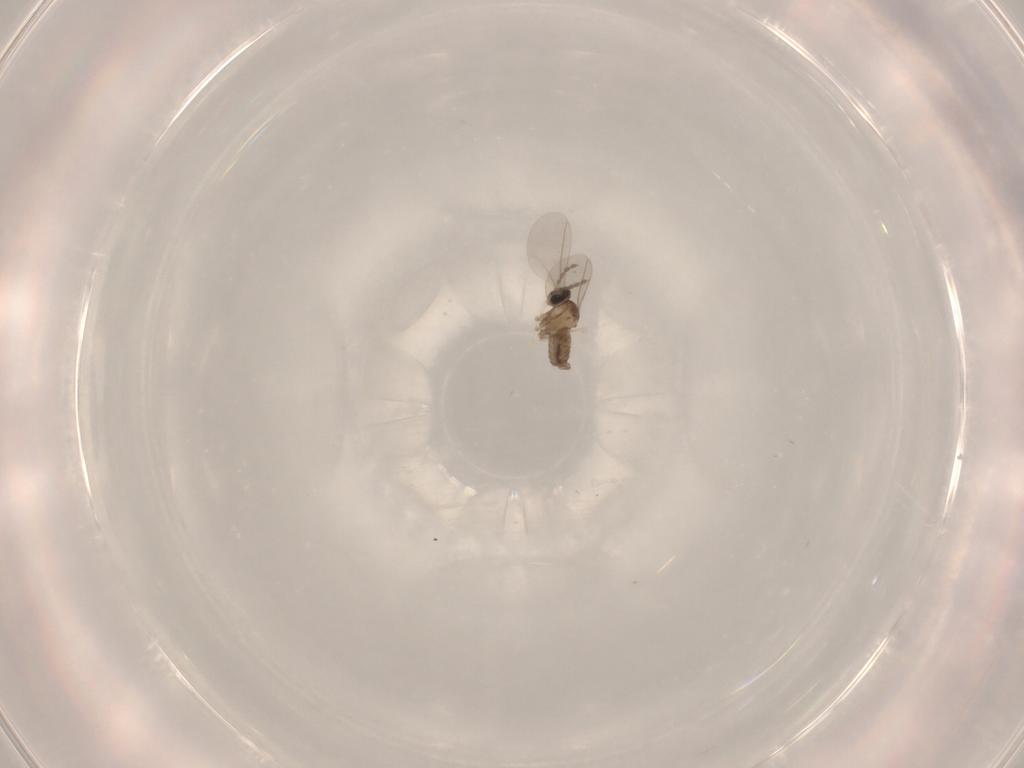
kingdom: Animalia
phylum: Arthropoda
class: Insecta
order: Diptera
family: Cecidomyiidae
